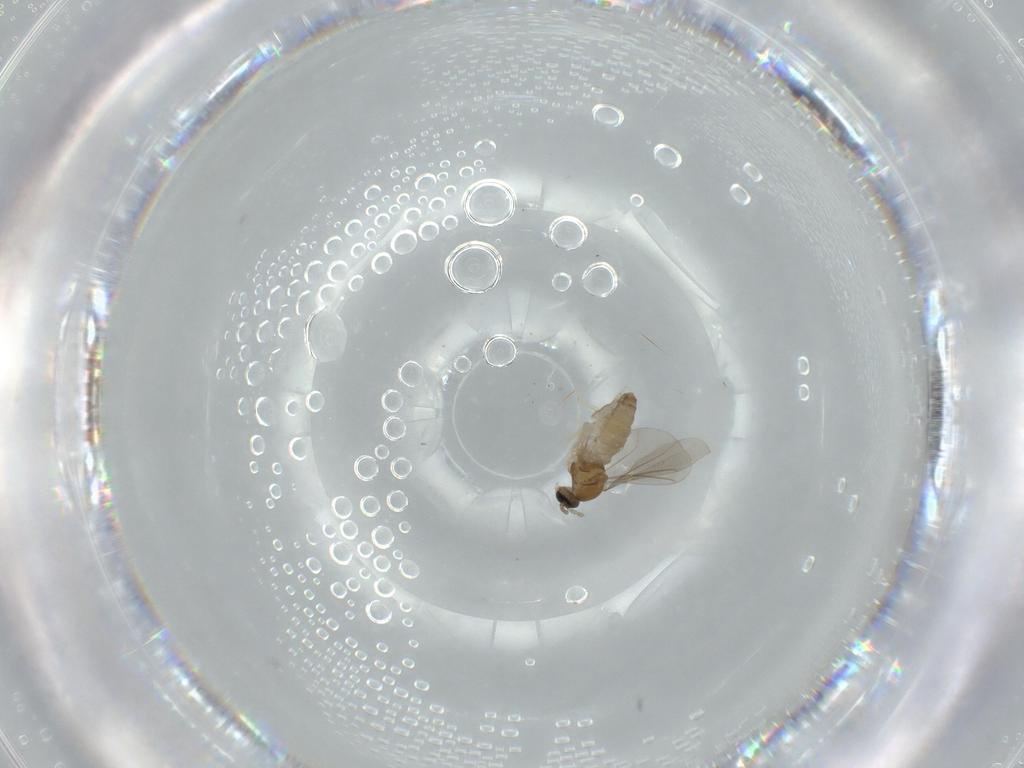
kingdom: Animalia
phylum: Arthropoda
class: Insecta
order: Diptera
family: Cecidomyiidae
